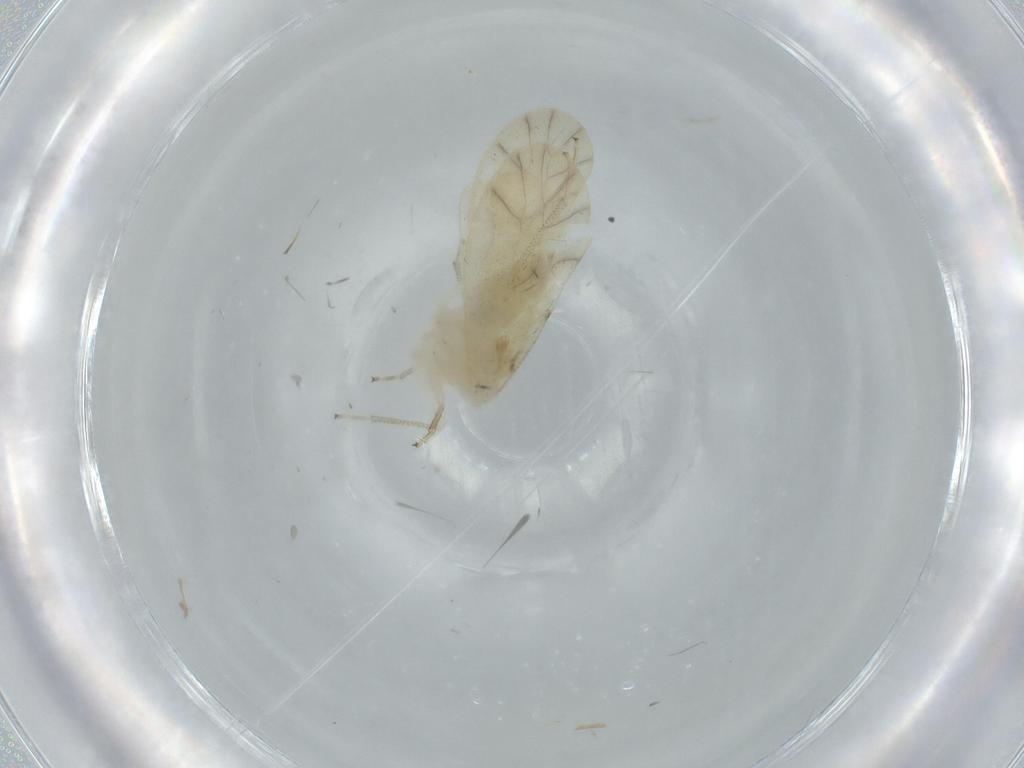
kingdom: Animalia
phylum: Arthropoda
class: Insecta
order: Psocodea
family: Caeciliusidae
